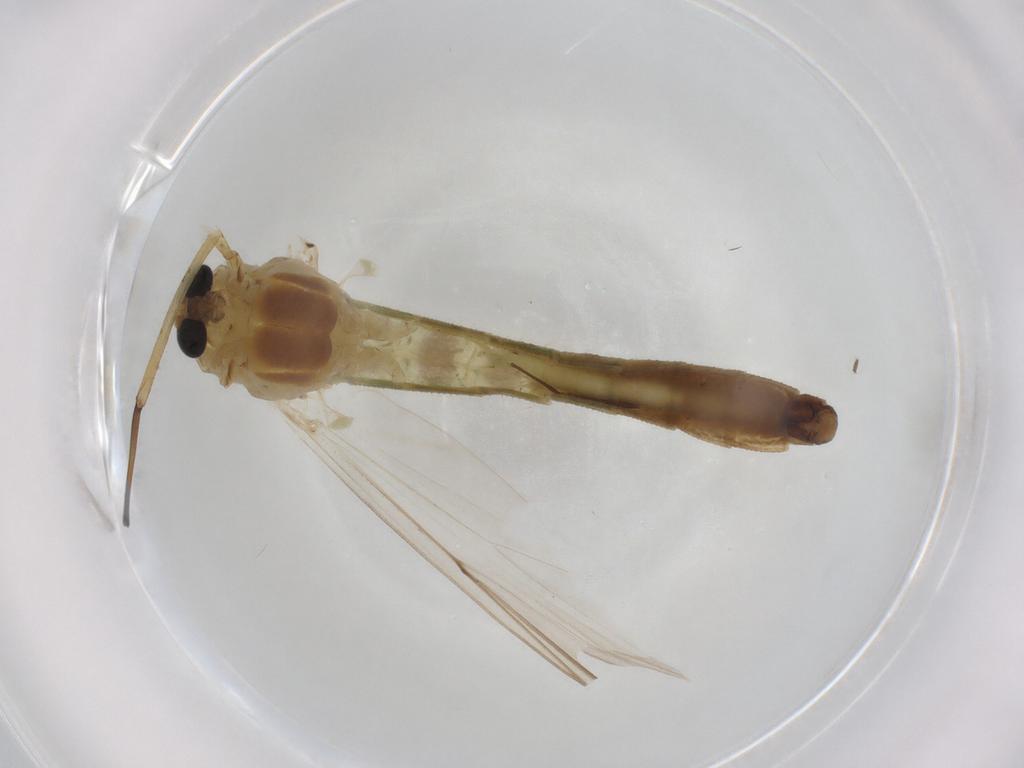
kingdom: Animalia
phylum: Arthropoda
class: Insecta
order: Diptera
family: Chironomidae
